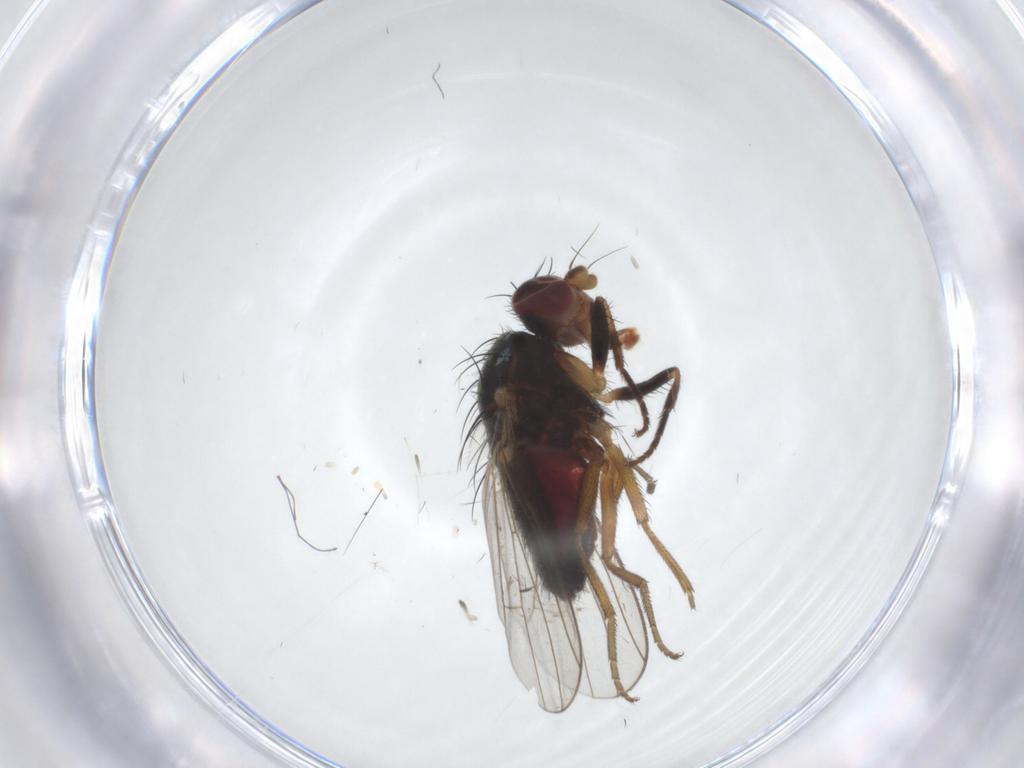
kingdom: Animalia
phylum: Arthropoda
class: Insecta
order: Diptera
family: Heleomyzidae
